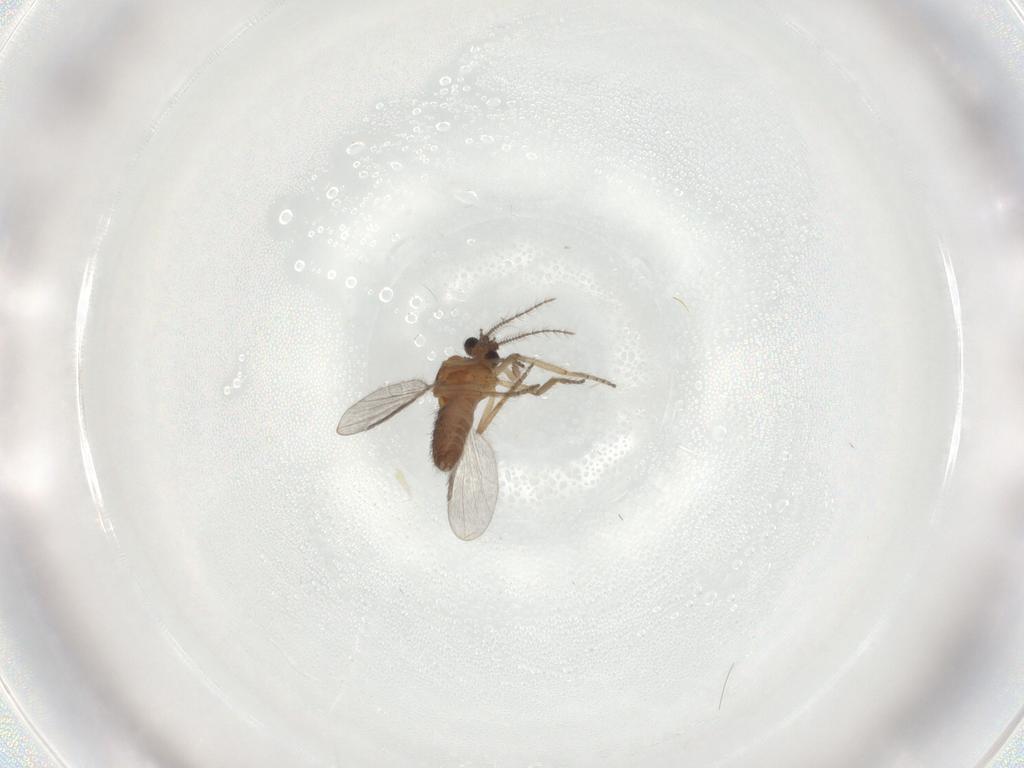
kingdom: Animalia
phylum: Arthropoda
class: Insecta
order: Diptera
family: Ceratopogonidae
